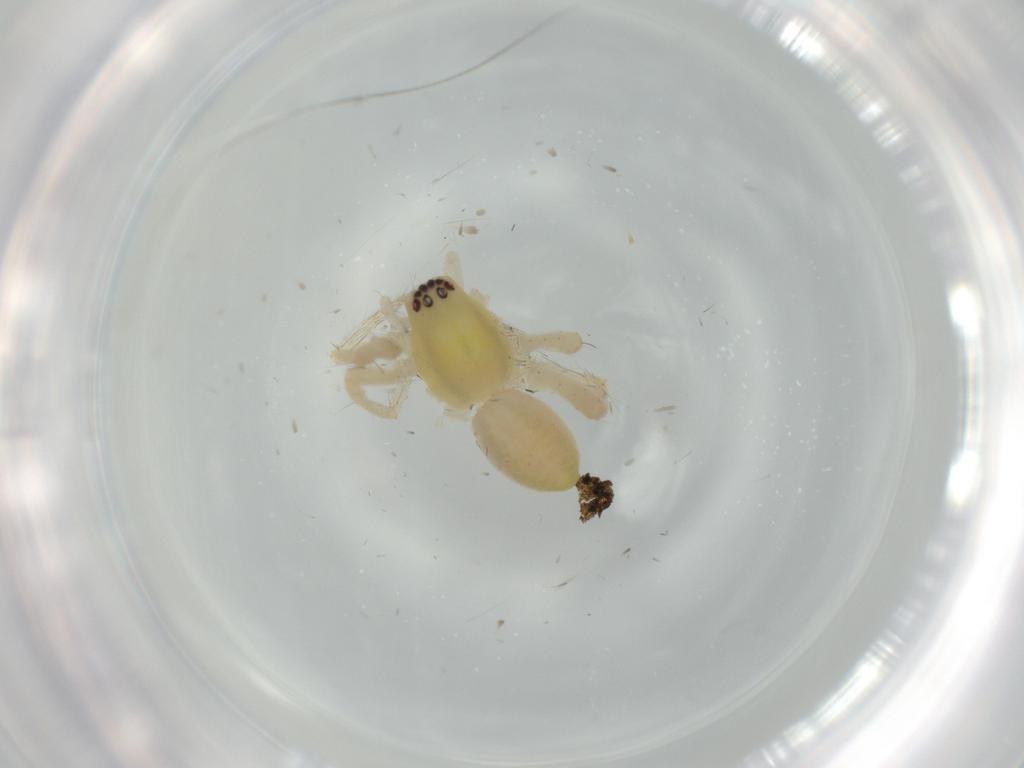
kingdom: Animalia
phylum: Arthropoda
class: Arachnida
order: Araneae
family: Anyphaenidae
